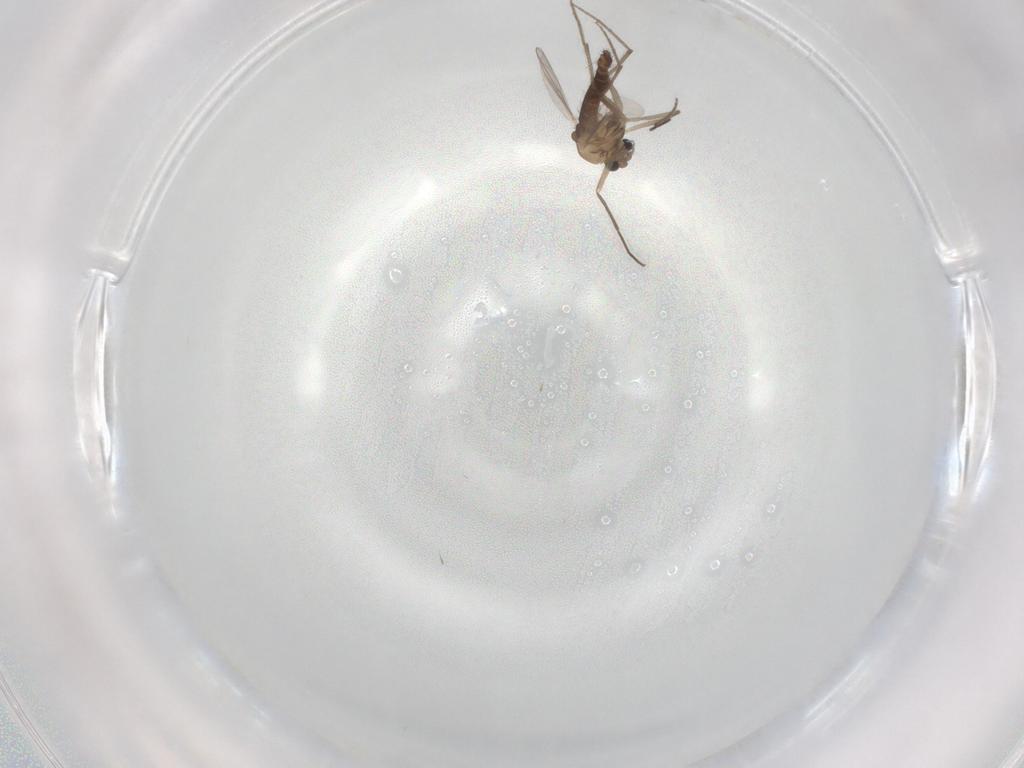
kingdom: Animalia
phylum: Arthropoda
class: Insecta
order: Diptera
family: Chironomidae
